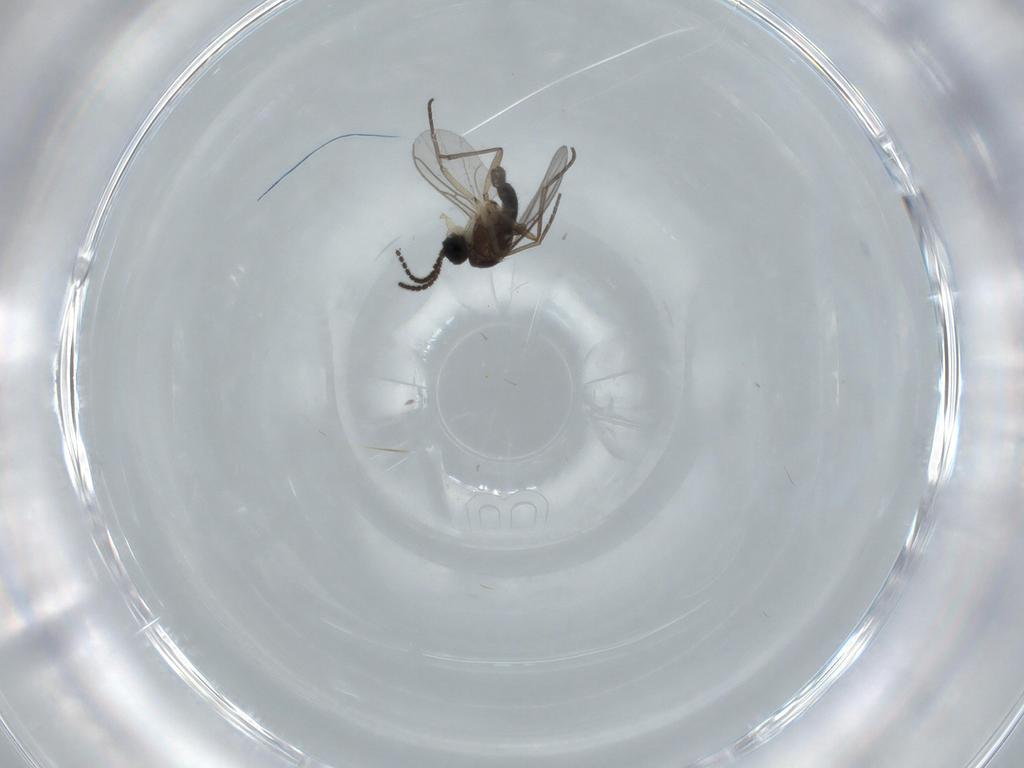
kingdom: Animalia
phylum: Arthropoda
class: Insecta
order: Diptera
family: Sciaridae
